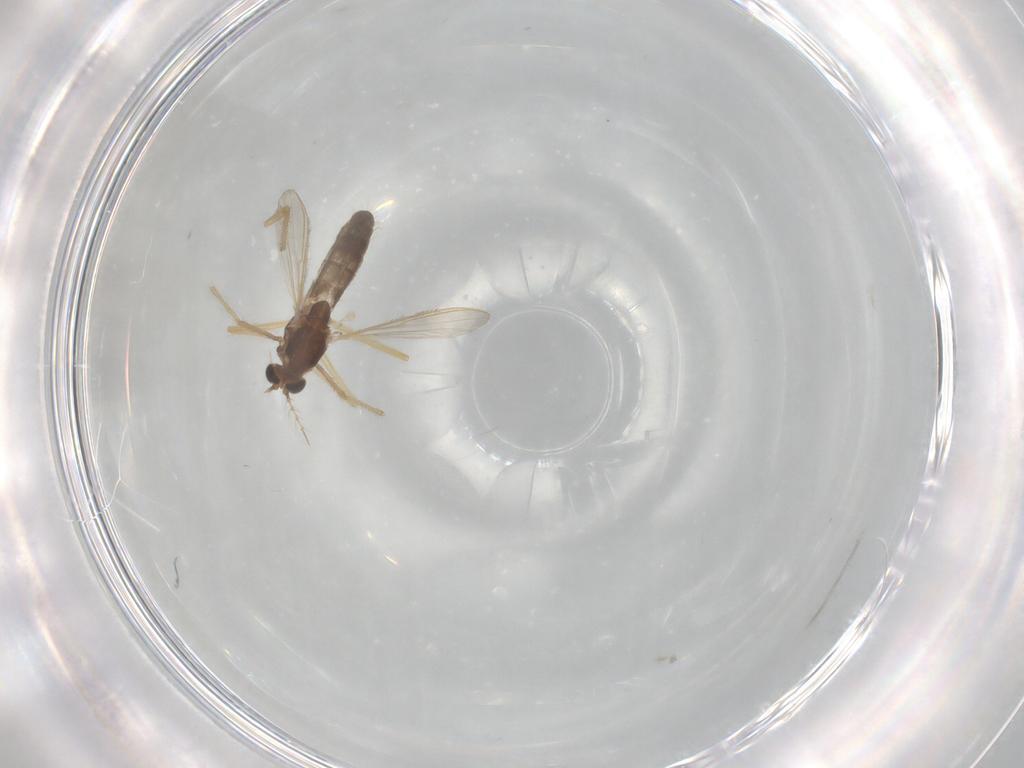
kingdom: Animalia
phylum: Arthropoda
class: Insecta
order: Diptera
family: Chironomidae
